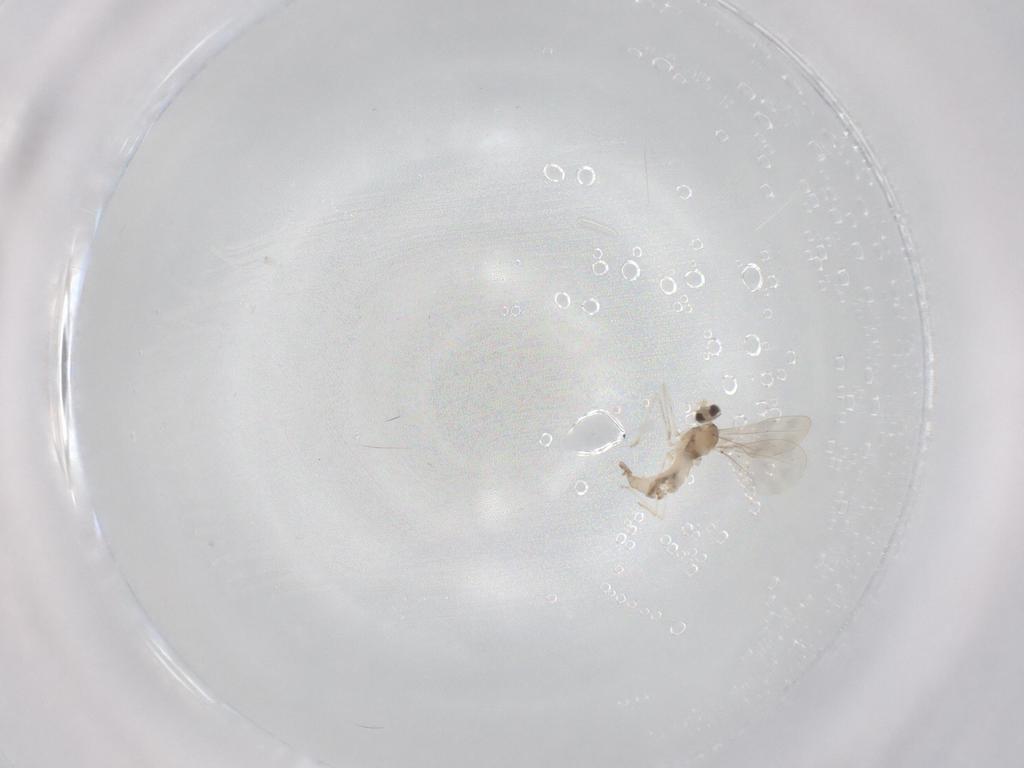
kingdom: Animalia
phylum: Arthropoda
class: Insecta
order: Diptera
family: Cecidomyiidae
